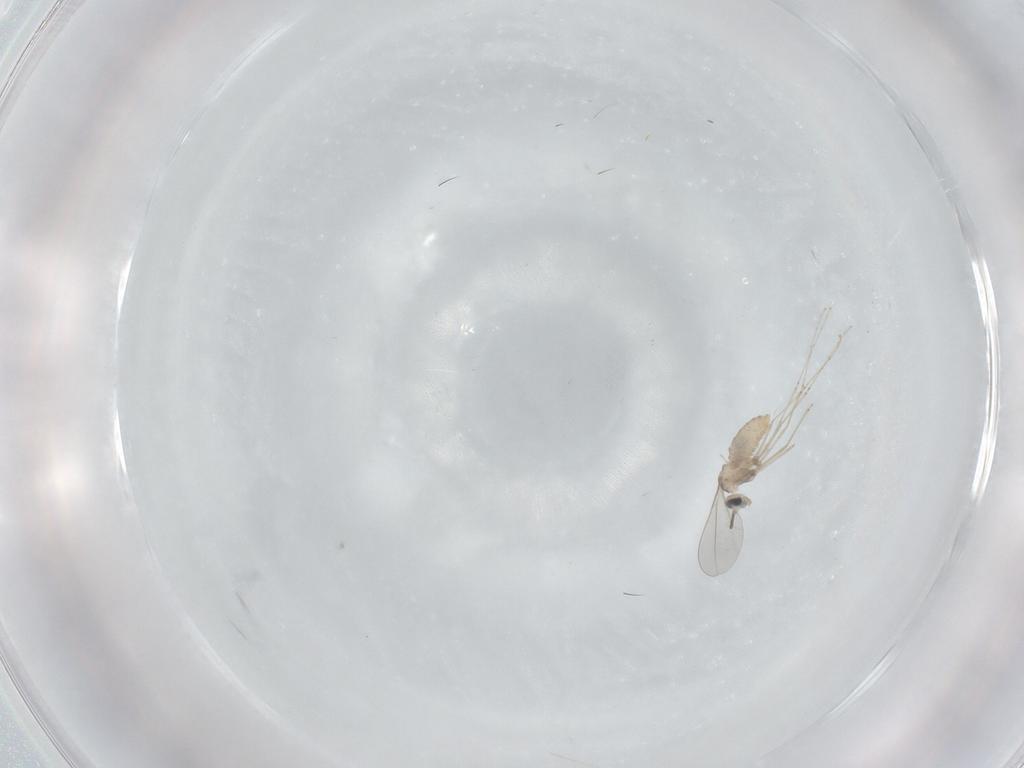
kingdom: Animalia
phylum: Arthropoda
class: Insecta
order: Diptera
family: Cecidomyiidae
